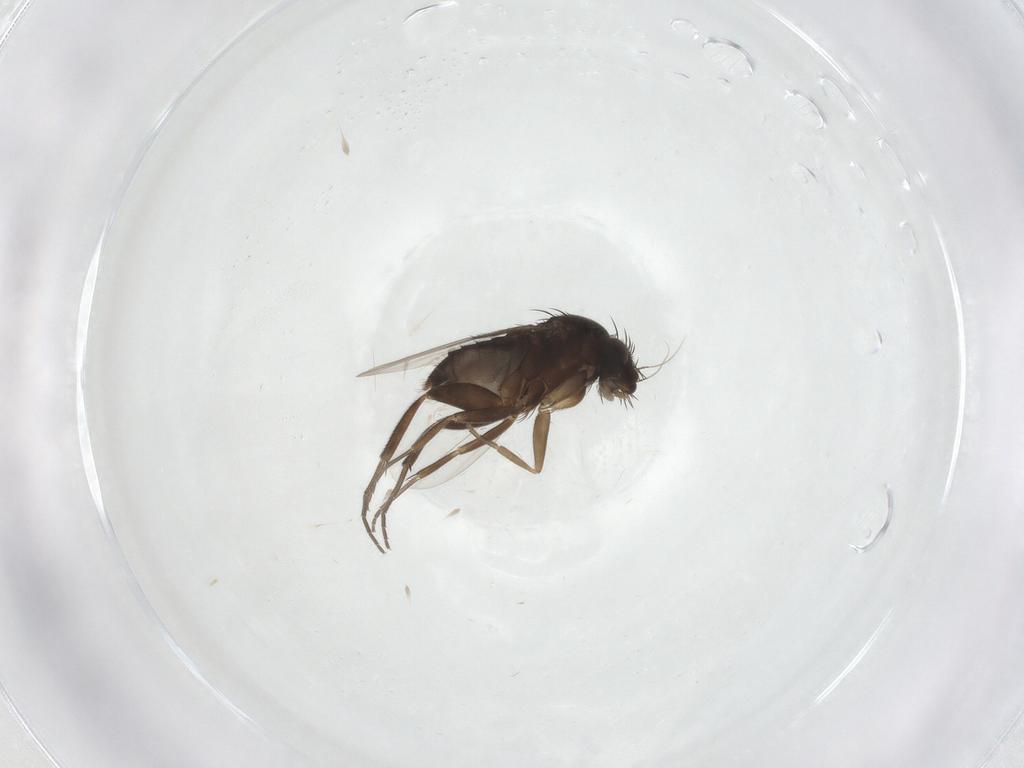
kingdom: Animalia
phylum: Arthropoda
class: Insecta
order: Diptera
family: Phoridae
